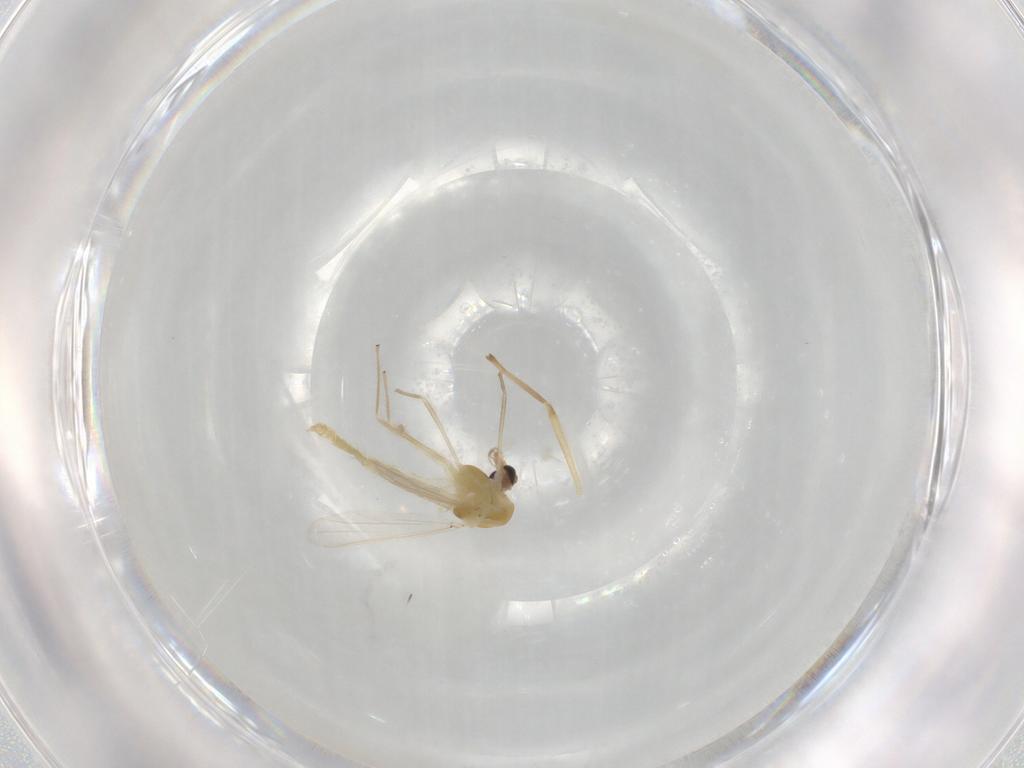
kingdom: Animalia
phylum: Arthropoda
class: Insecta
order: Diptera
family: Chironomidae
